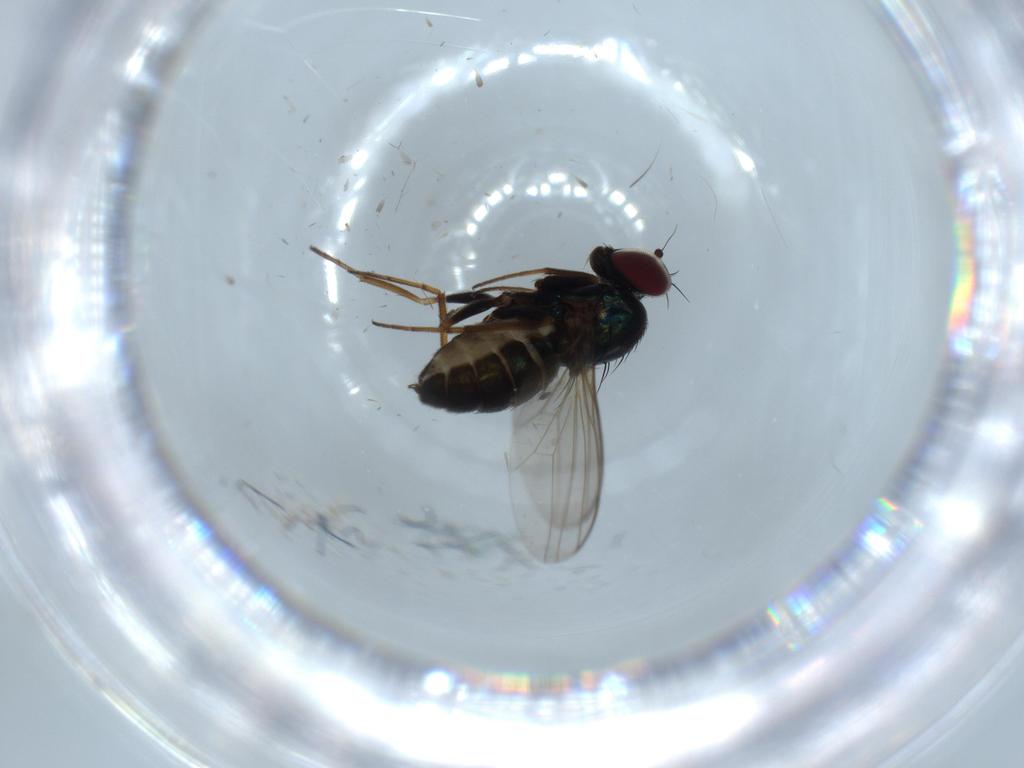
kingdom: Animalia
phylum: Arthropoda
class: Insecta
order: Diptera
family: Dolichopodidae
